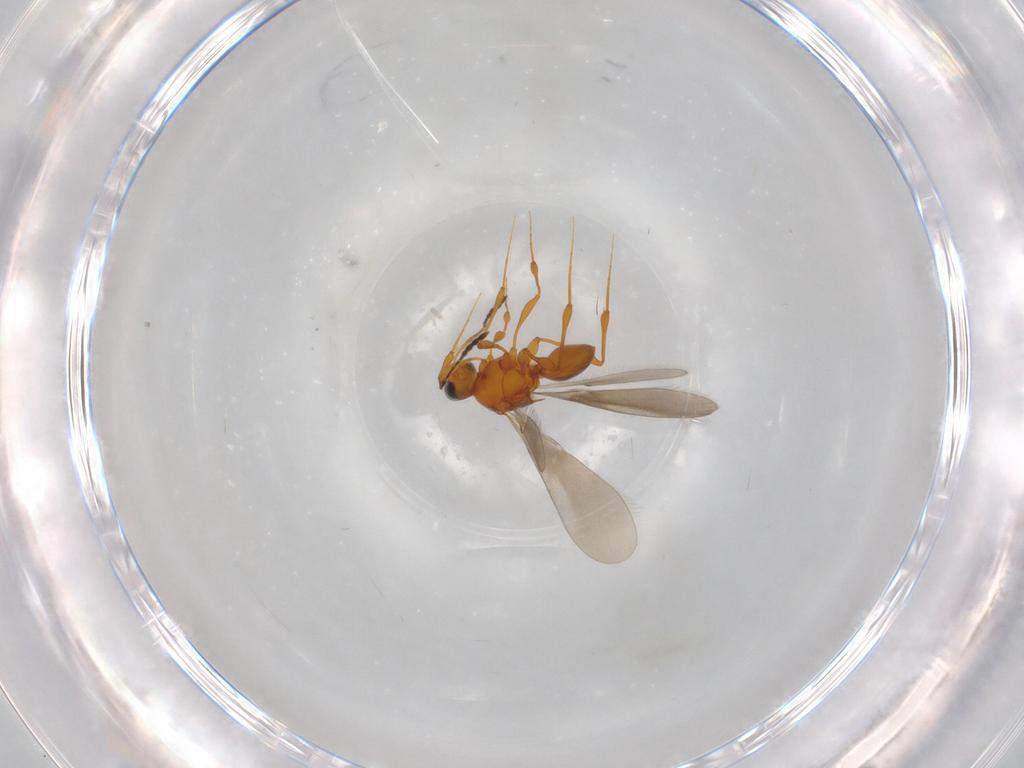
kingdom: Animalia
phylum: Arthropoda
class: Insecta
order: Hymenoptera
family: Platygastridae
